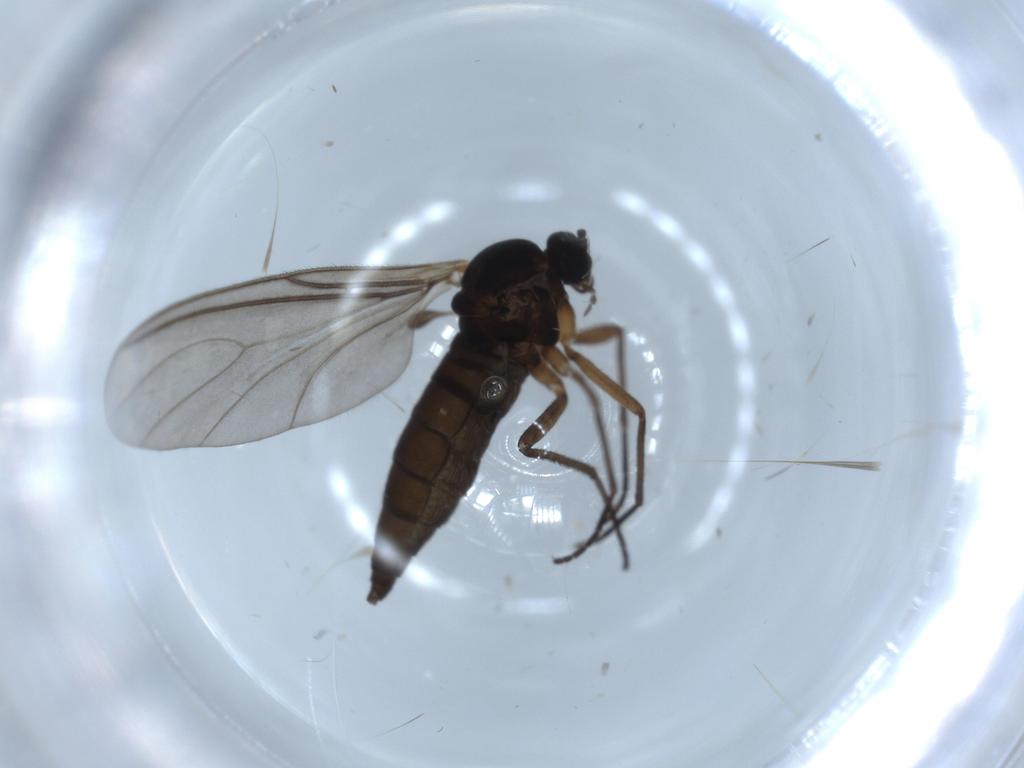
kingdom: Animalia
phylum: Arthropoda
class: Insecta
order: Diptera
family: Sciaridae
